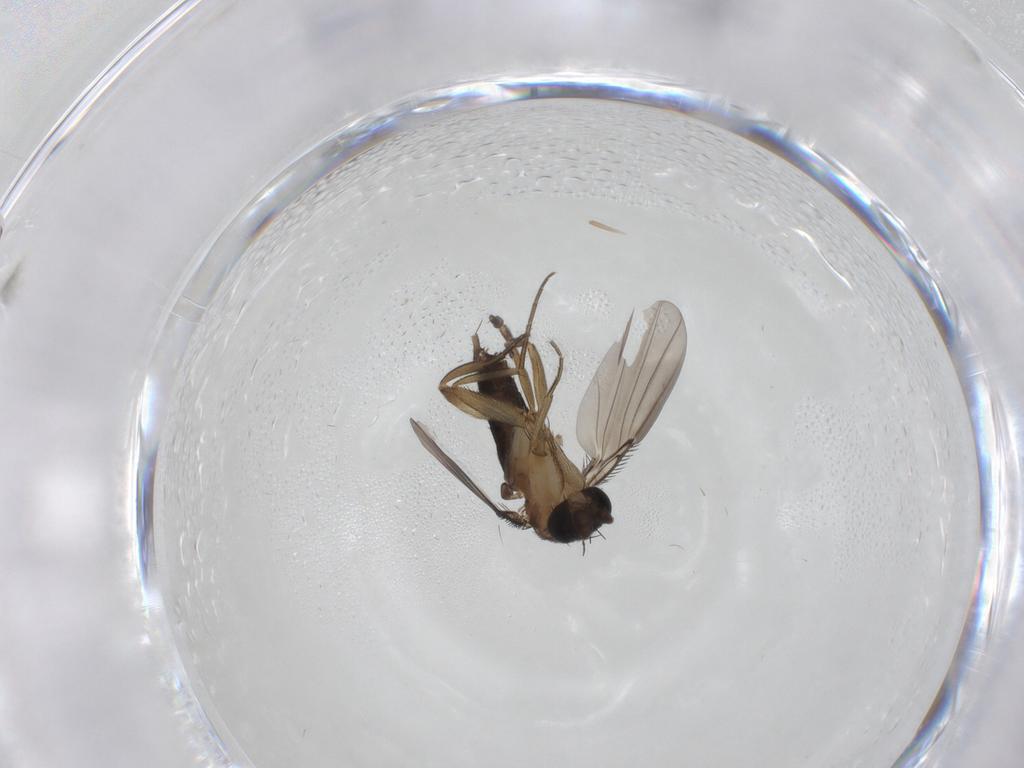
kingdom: Animalia
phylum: Arthropoda
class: Insecta
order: Diptera
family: Phoridae
